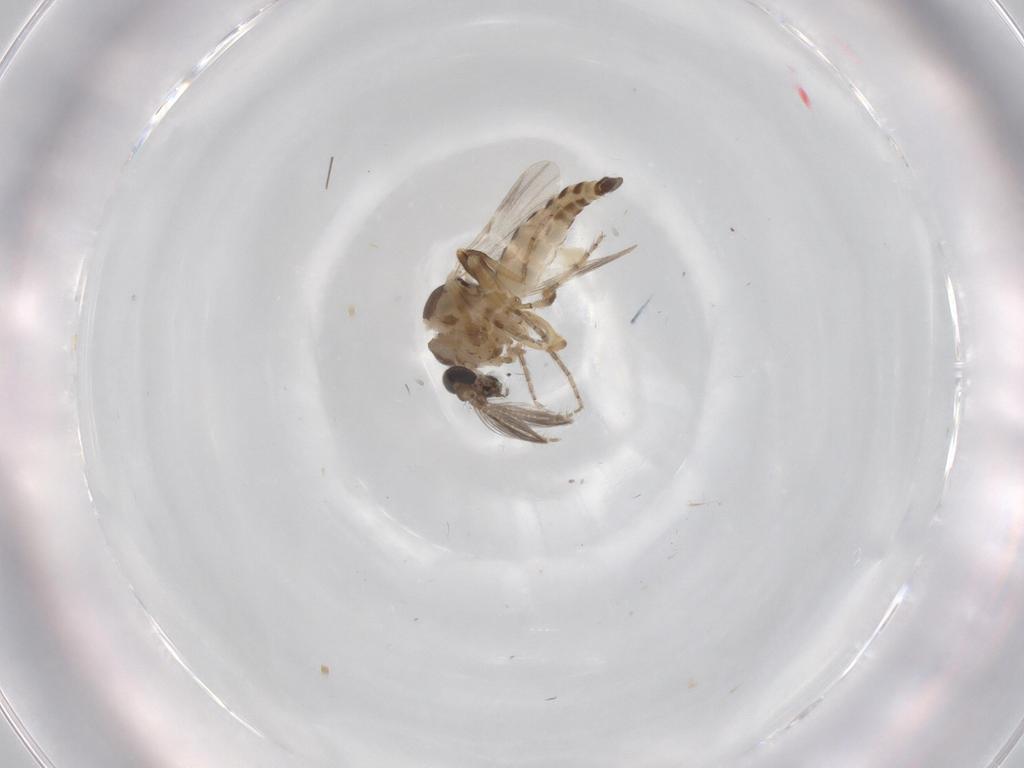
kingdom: Animalia
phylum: Arthropoda
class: Insecta
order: Diptera
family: Ceratopogonidae
